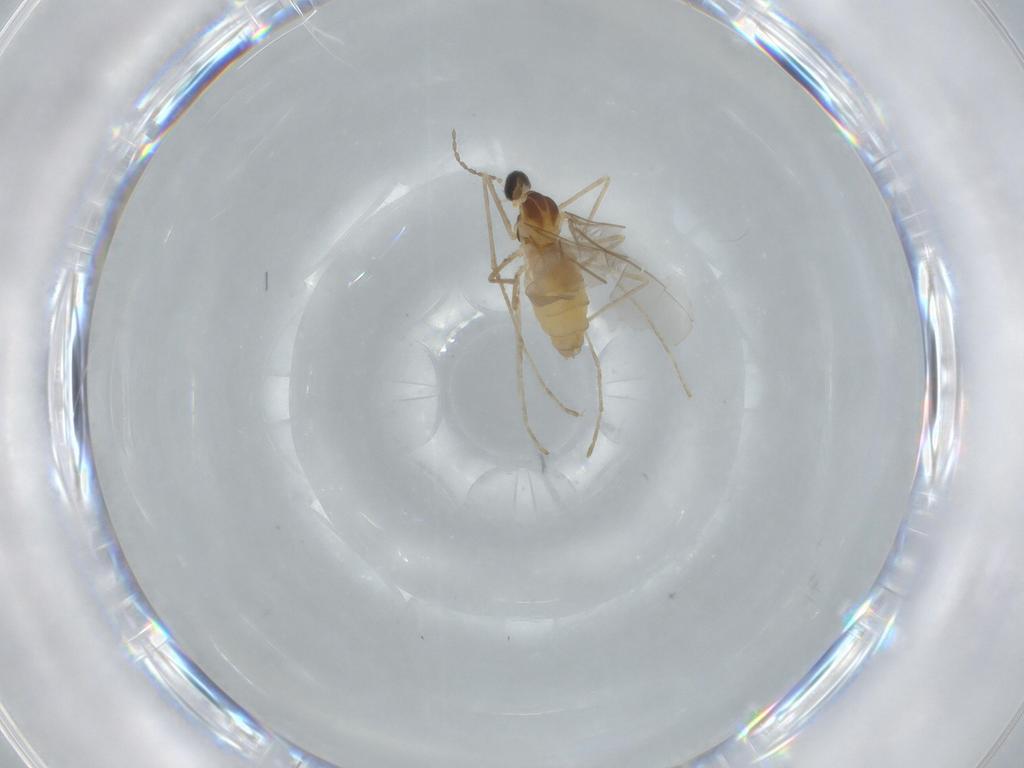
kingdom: Animalia
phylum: Arthropoda
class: Insecta
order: Diptera
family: Sciaridae
